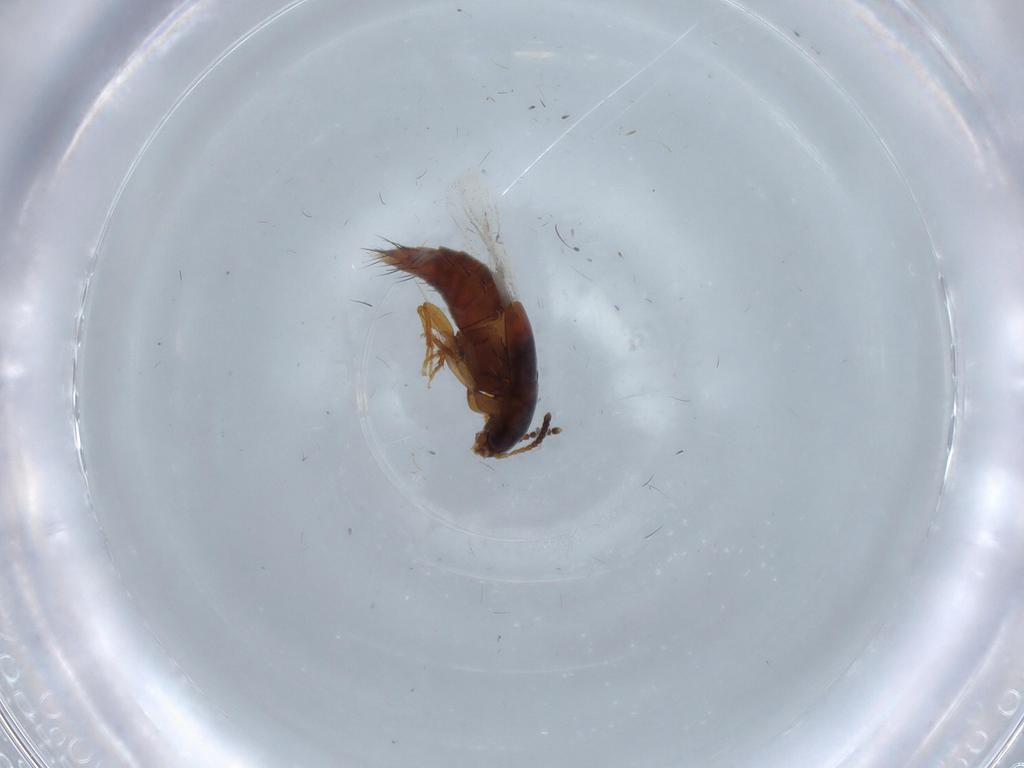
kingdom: Animalia
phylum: Arthropoda
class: Insecta
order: Coleoptera
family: Staphylinidae
